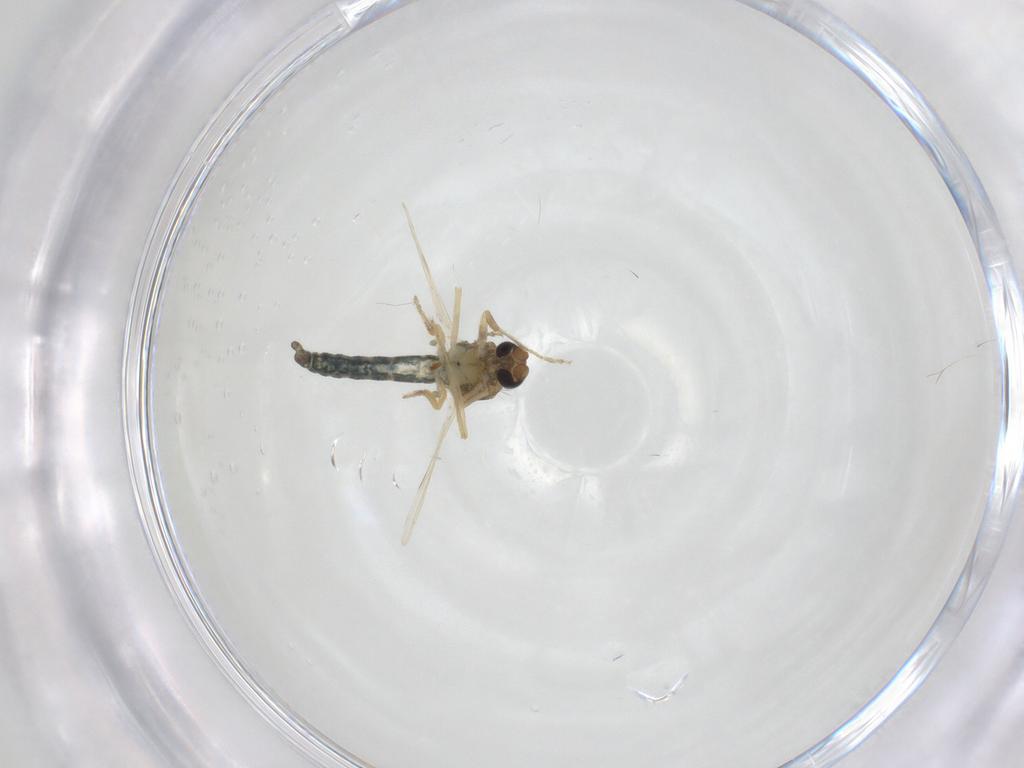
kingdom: Animalia
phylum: Arthropoda
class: Insecta
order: Diptera
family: Ceratopogonidae
